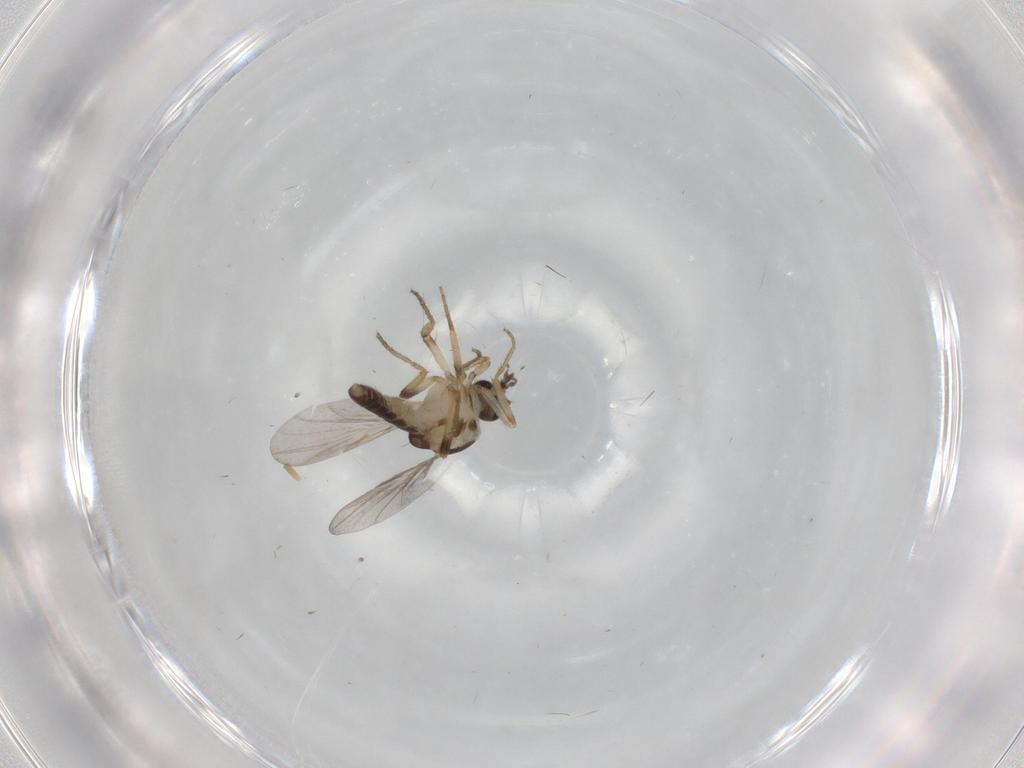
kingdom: Animalia
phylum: Arthropoda
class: Insecta
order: Diptera
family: Ceratopogonidae
